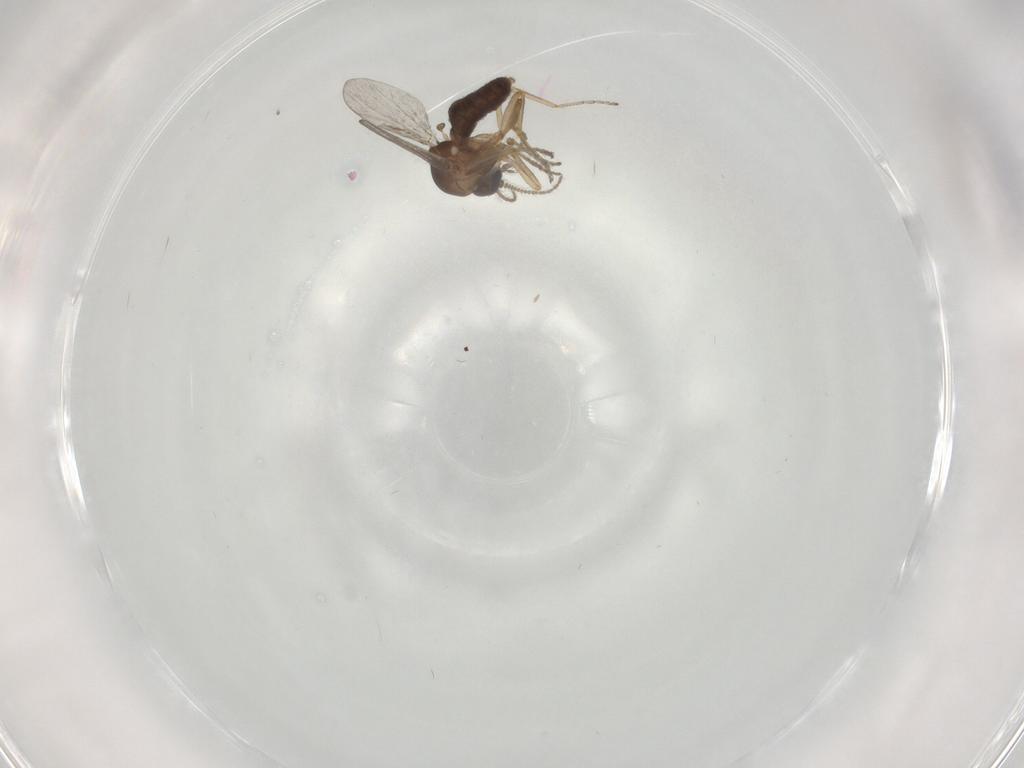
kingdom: Animalia
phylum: Arthropoda
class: Insecta
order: Diptera
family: Ceratopogonidae
